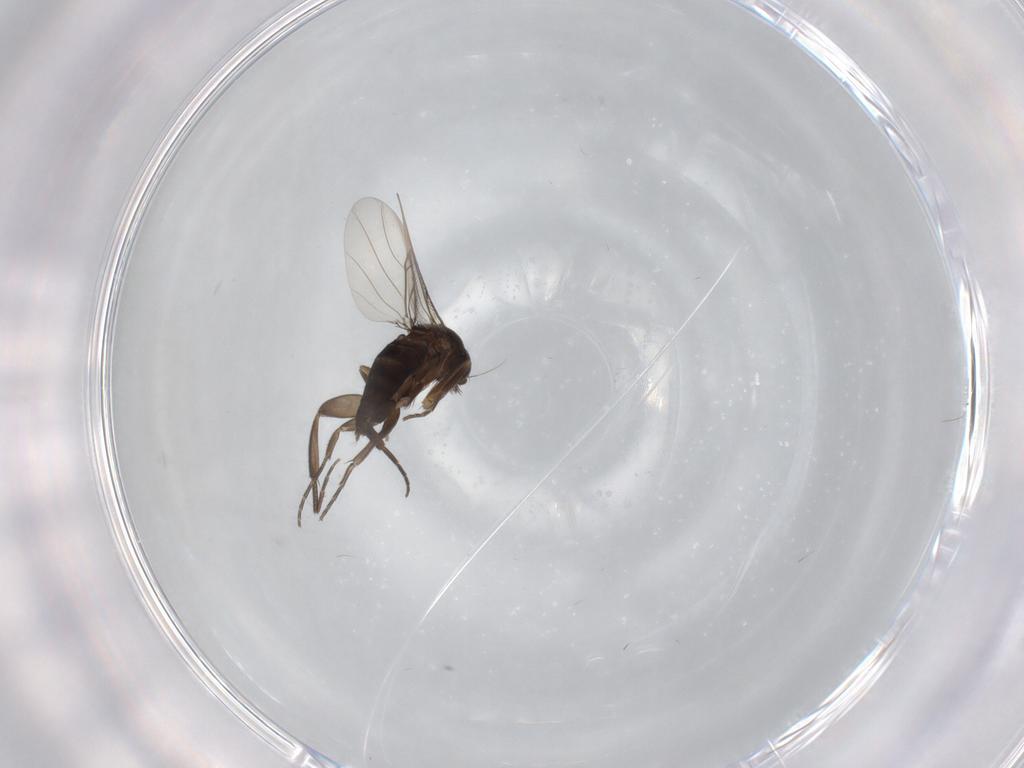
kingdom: Animalia
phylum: Arthropoda
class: Insecta
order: Diptera
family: Phoridae
